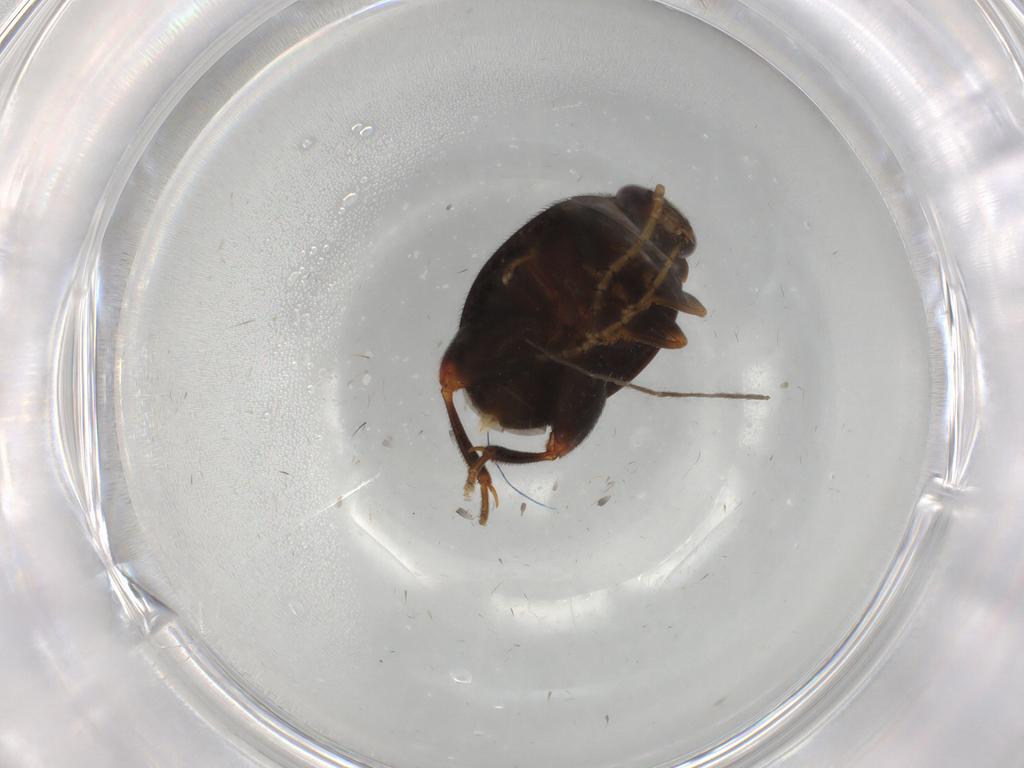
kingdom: Animalia
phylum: Arthropoda
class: Insecta
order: Coleoptera
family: Scirtidae
